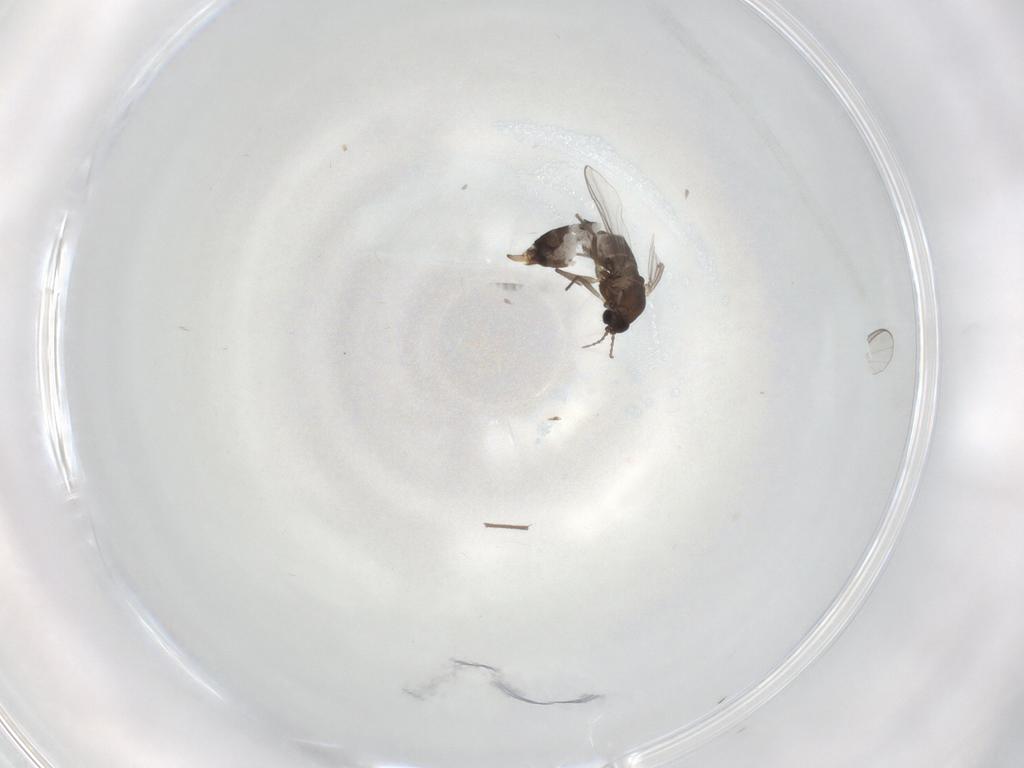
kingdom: Animalia
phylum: Arthropoda
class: Insecta
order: Diptera
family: Chironomidae
